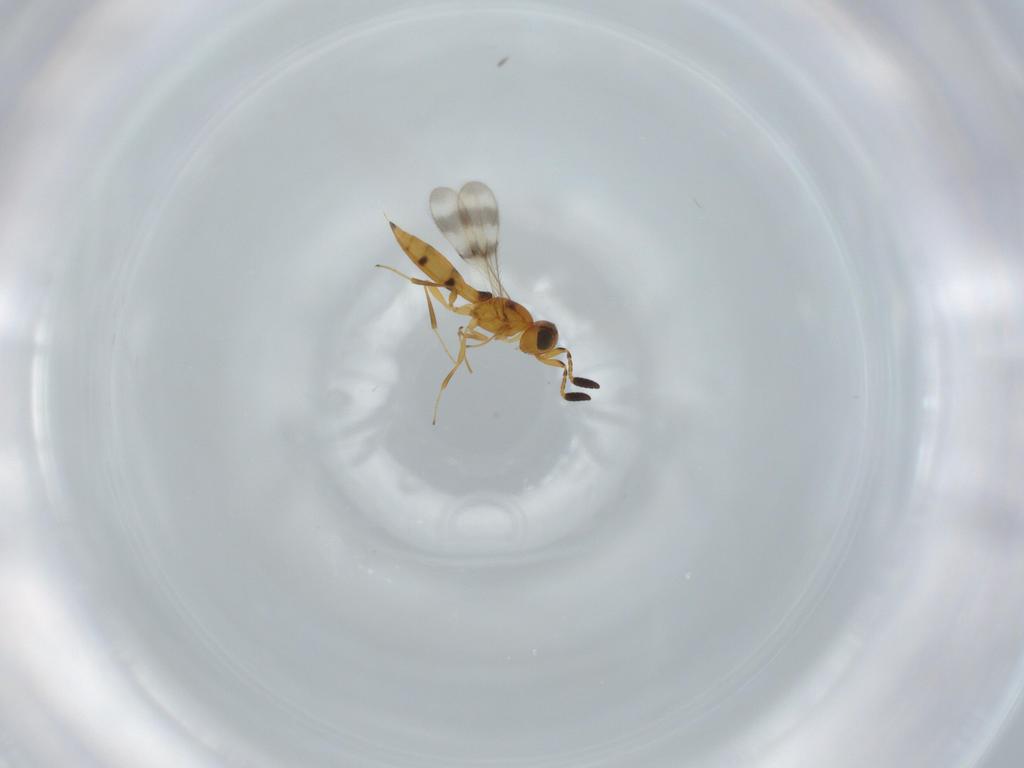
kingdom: Animalia
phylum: Arthropoda
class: Insecta
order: Hymenoptera
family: Scelionidae
